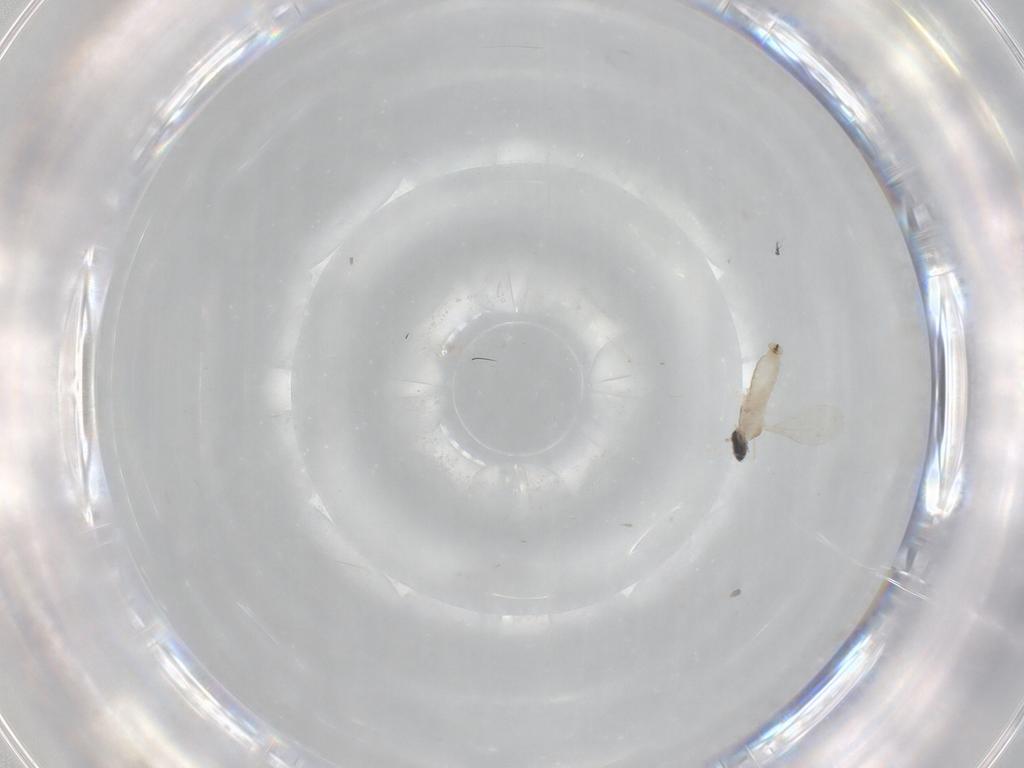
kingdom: Animalia
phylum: Arthropoda
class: Insecta
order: Diptera
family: Cecidomyiidae
